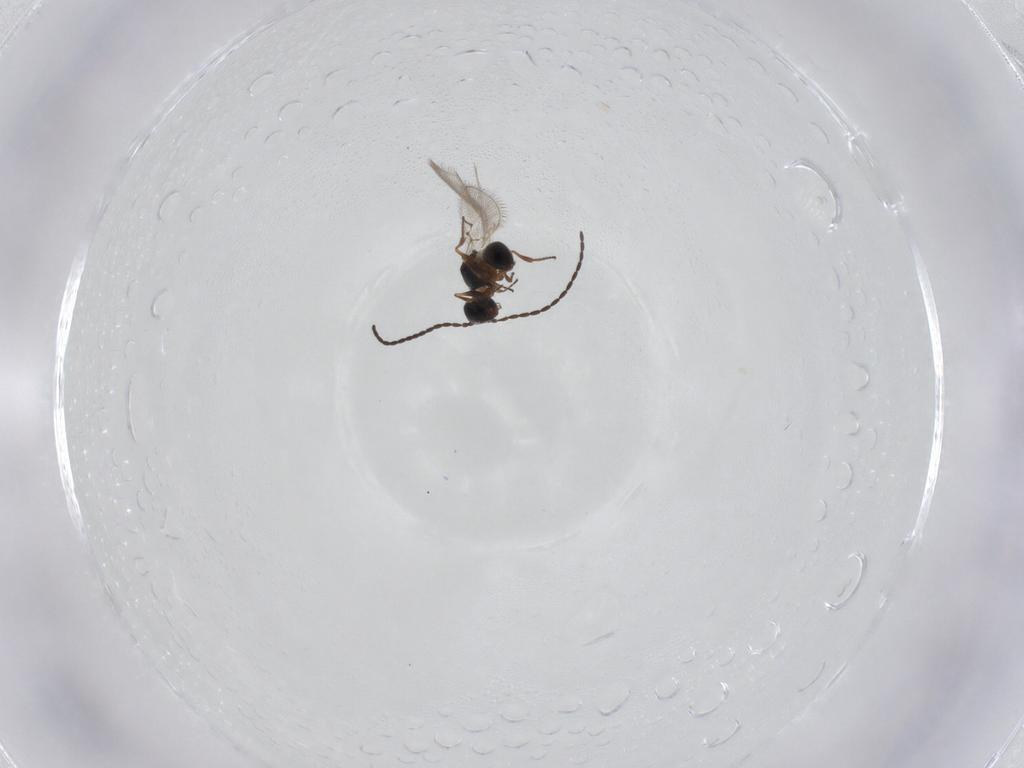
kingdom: Animalia
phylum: Arthropoda
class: Insecta
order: Hymenoptera
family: Figitidae
